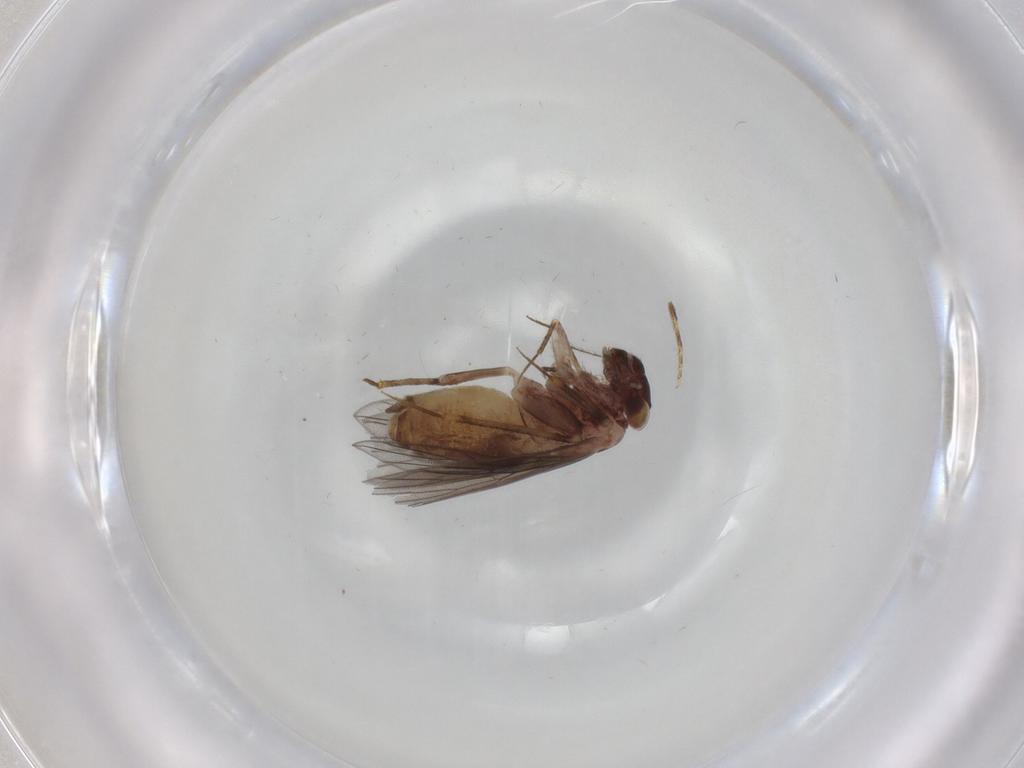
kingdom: Animalia
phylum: Arthropoda
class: Insecta
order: Psocodea
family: Lepidopsocidae
